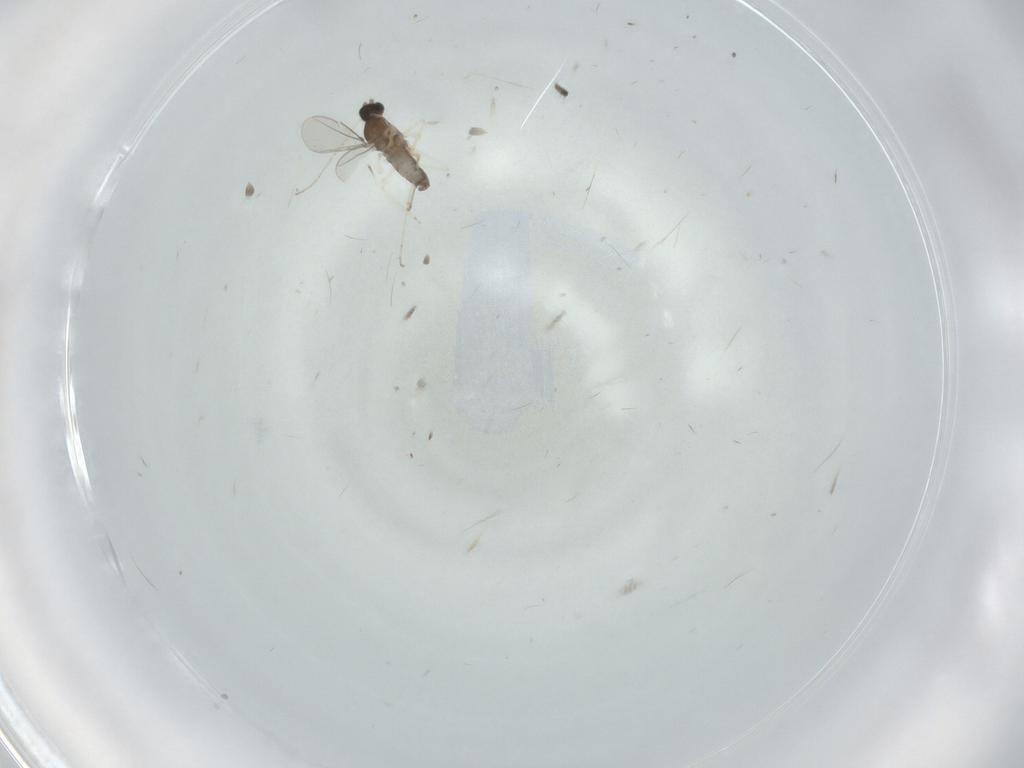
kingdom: Animalia
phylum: Arthropoda
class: Insecta
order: Diptera
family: Cecidomyiidae
